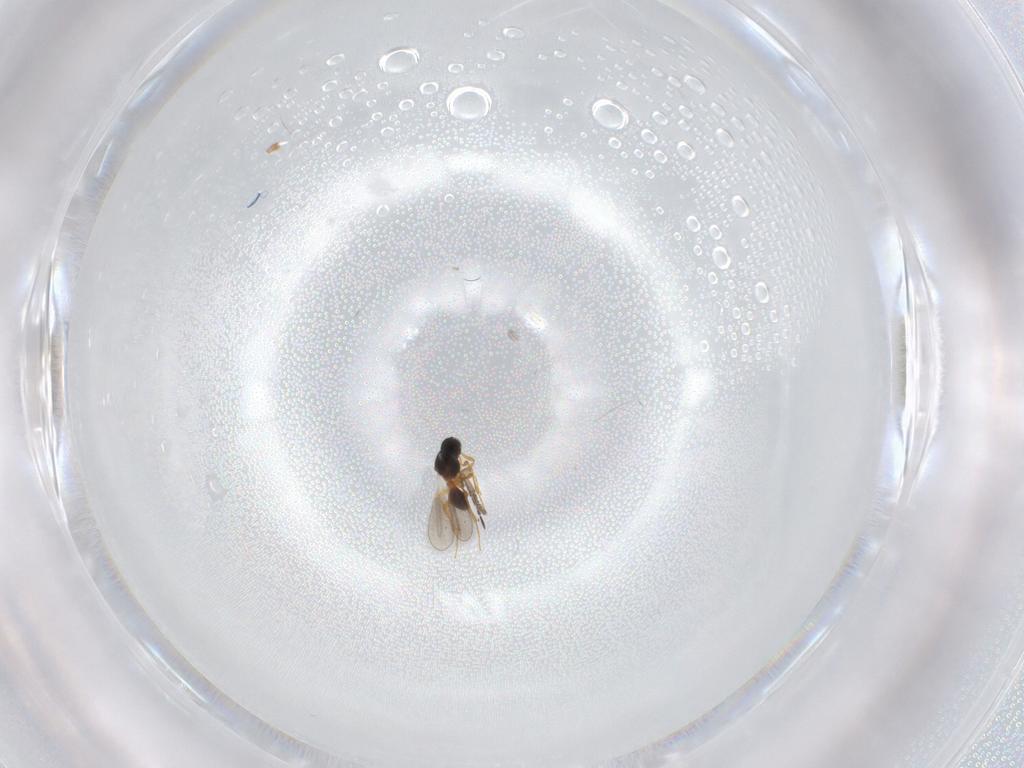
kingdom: Animalia
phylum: Arthropoda
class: Insecta
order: Hymenoptera
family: Platygastridae
